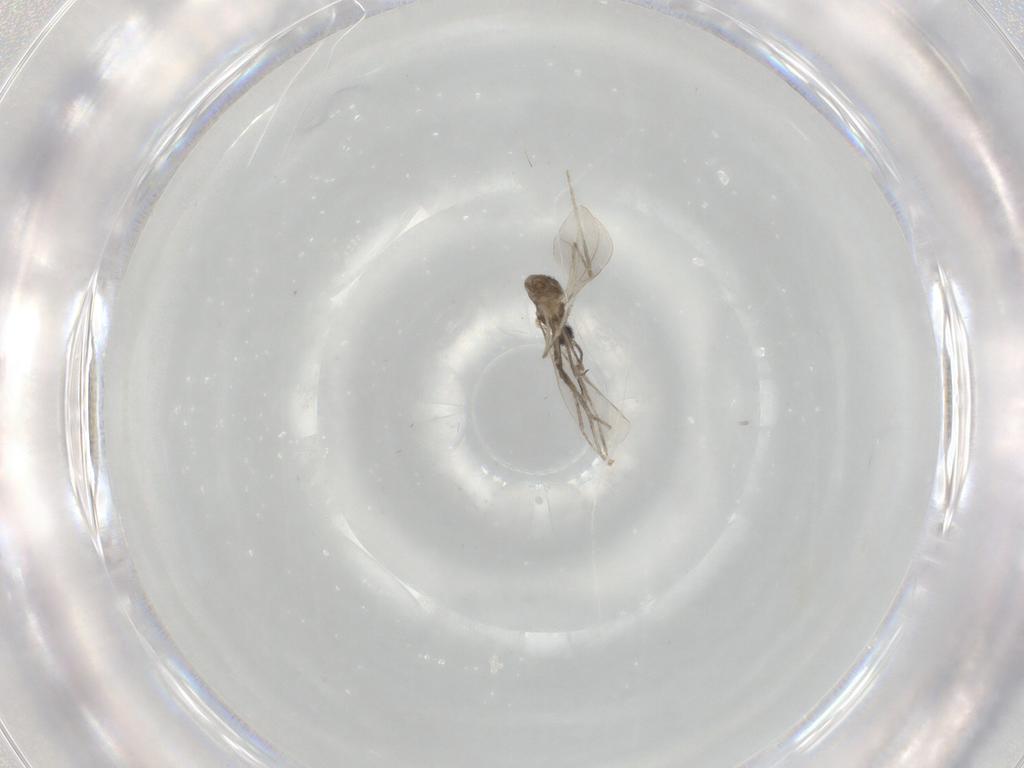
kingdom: Animalia
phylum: Arthropoda
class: Insecta
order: Diptera
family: Cecidomyiidae
